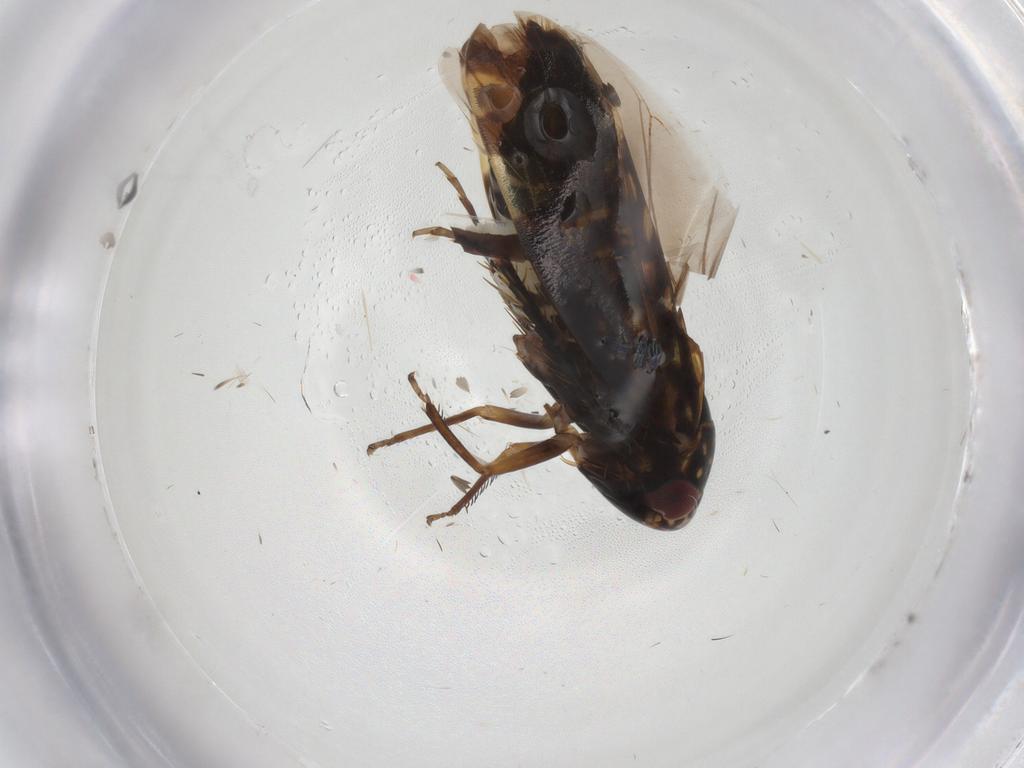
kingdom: Animalia
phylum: Arthropoda
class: Insecta
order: Hemiptera
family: Cicadellidae
